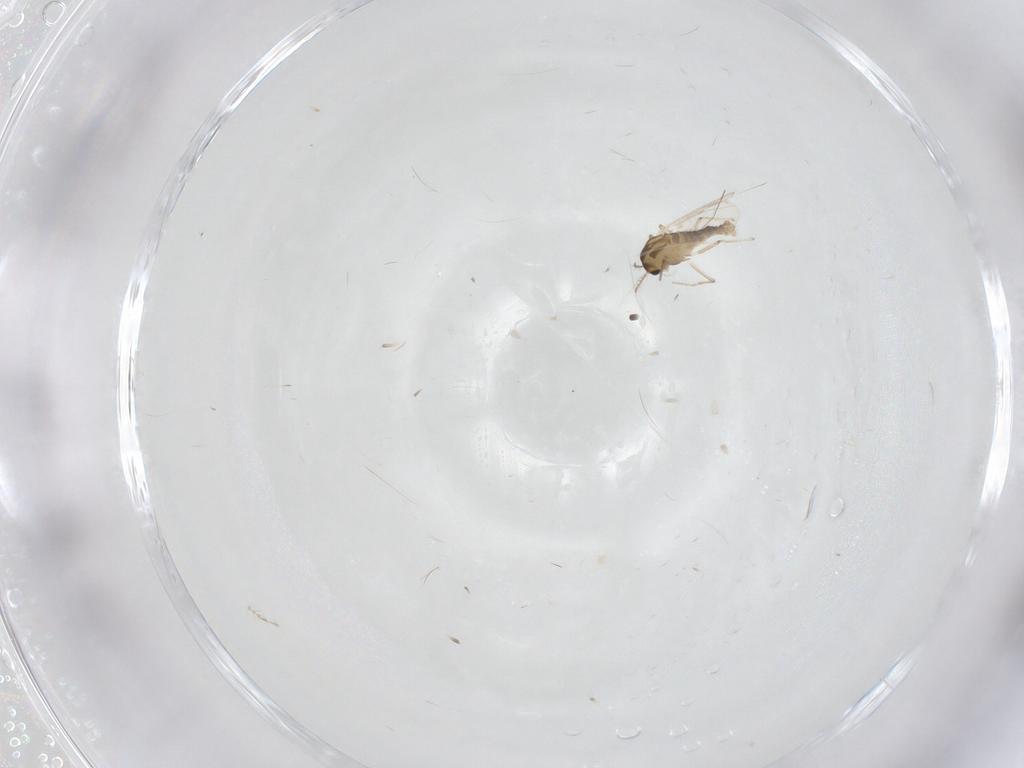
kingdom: Animalia
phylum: Arthropoda
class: Insecta
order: Diptera
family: Chironomidae
